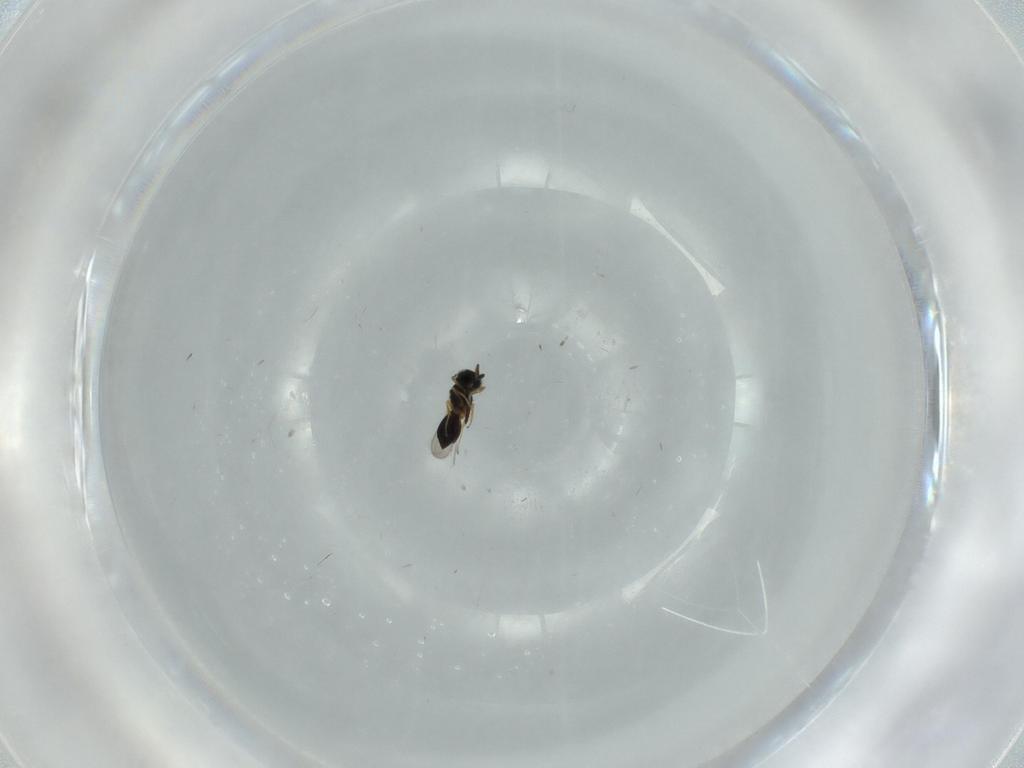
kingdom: Animalia
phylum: Arthropoda
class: Insecta
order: Hymenoptera
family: Scelionidae
